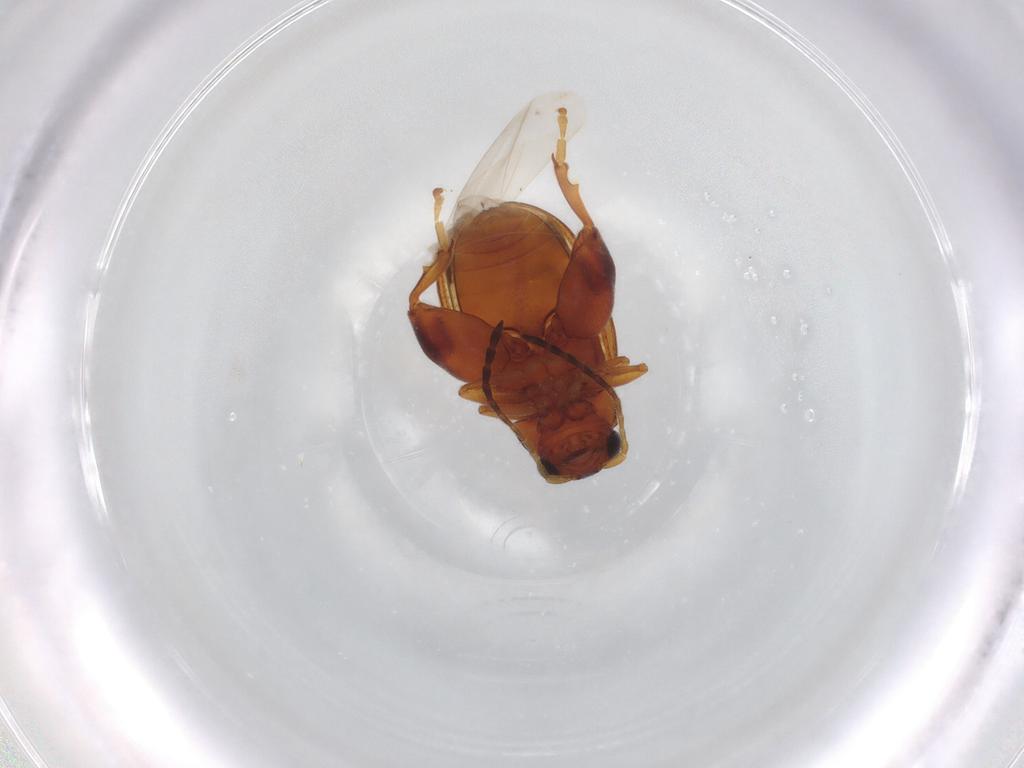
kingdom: Animalia
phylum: Arthropoda
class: Insecta
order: Coleoptera
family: Chrysomelidae
